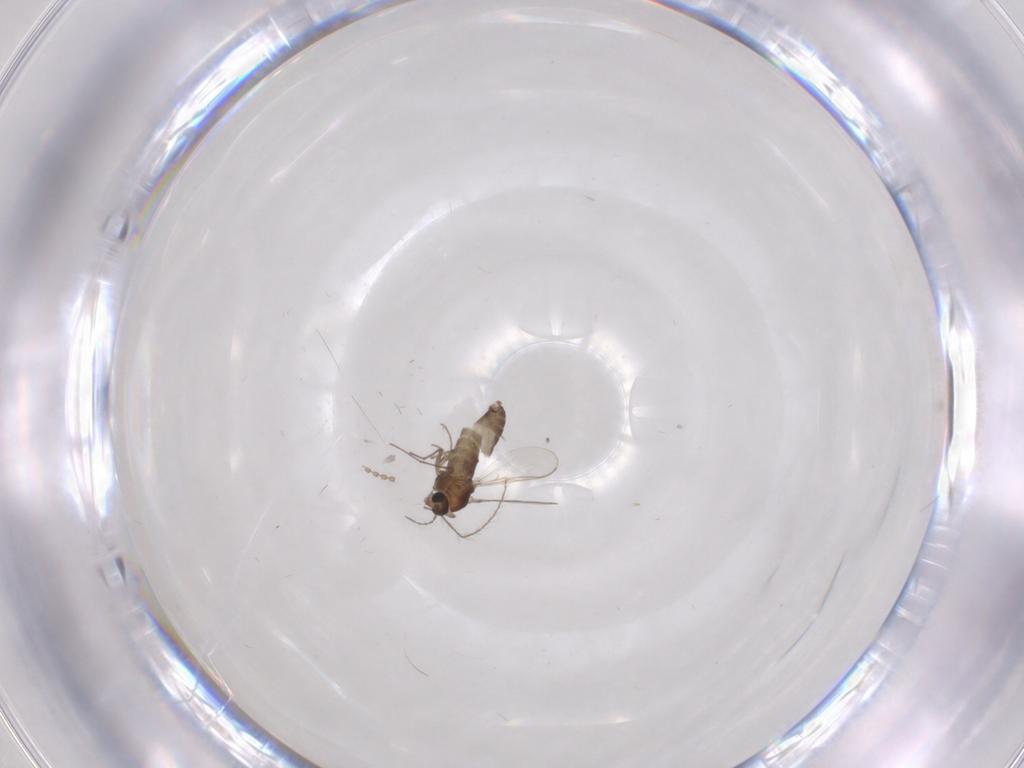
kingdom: Animalia
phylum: Arthropoda
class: Insecta
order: Diptera
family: Chironomidae
